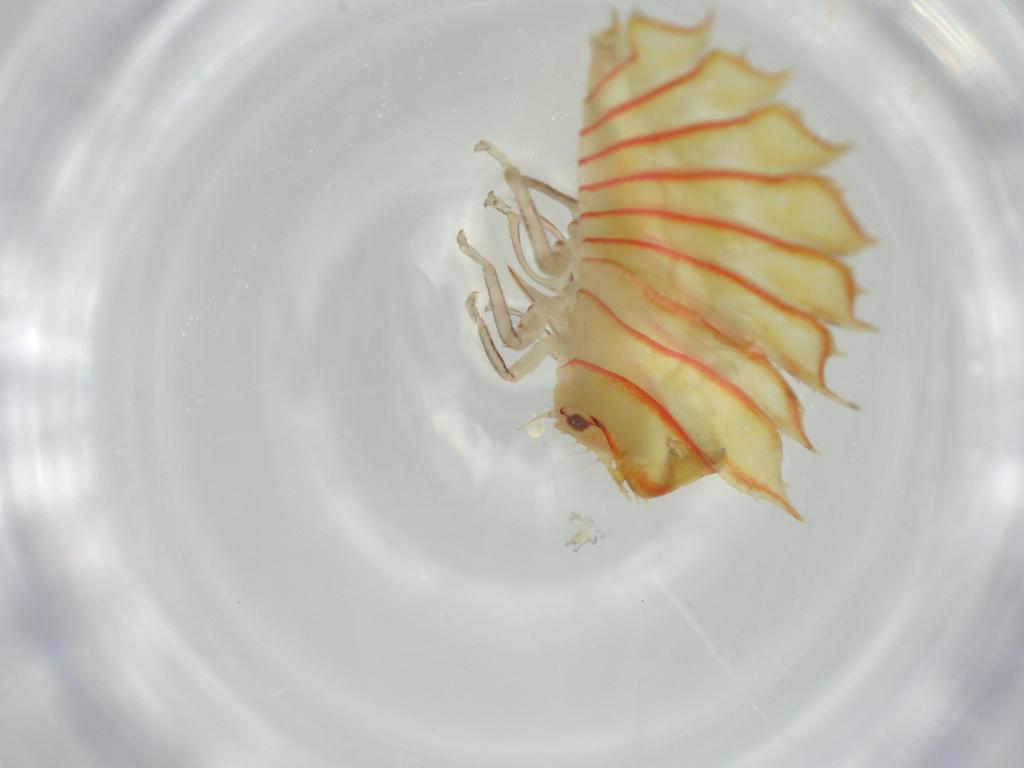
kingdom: Animalia
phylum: Arthropoda
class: Insecta
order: Hemiptera
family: Membracidae
